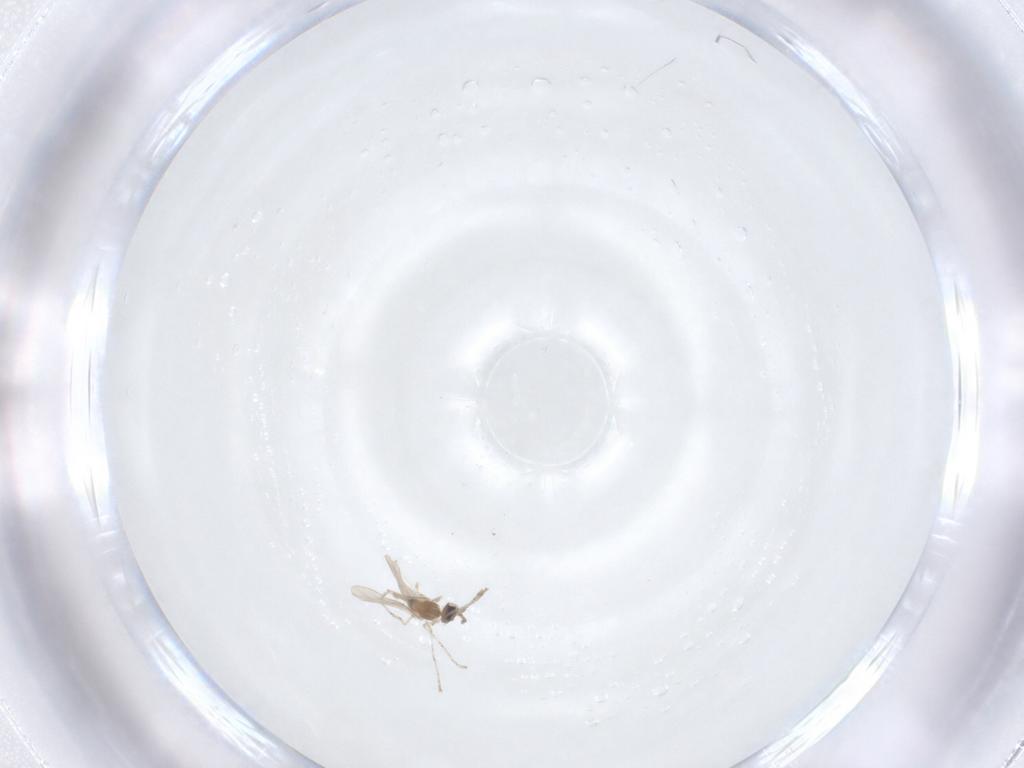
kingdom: Animalia
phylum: Arthropoda
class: Insecta
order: Diptera
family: Cecidomyiidae
